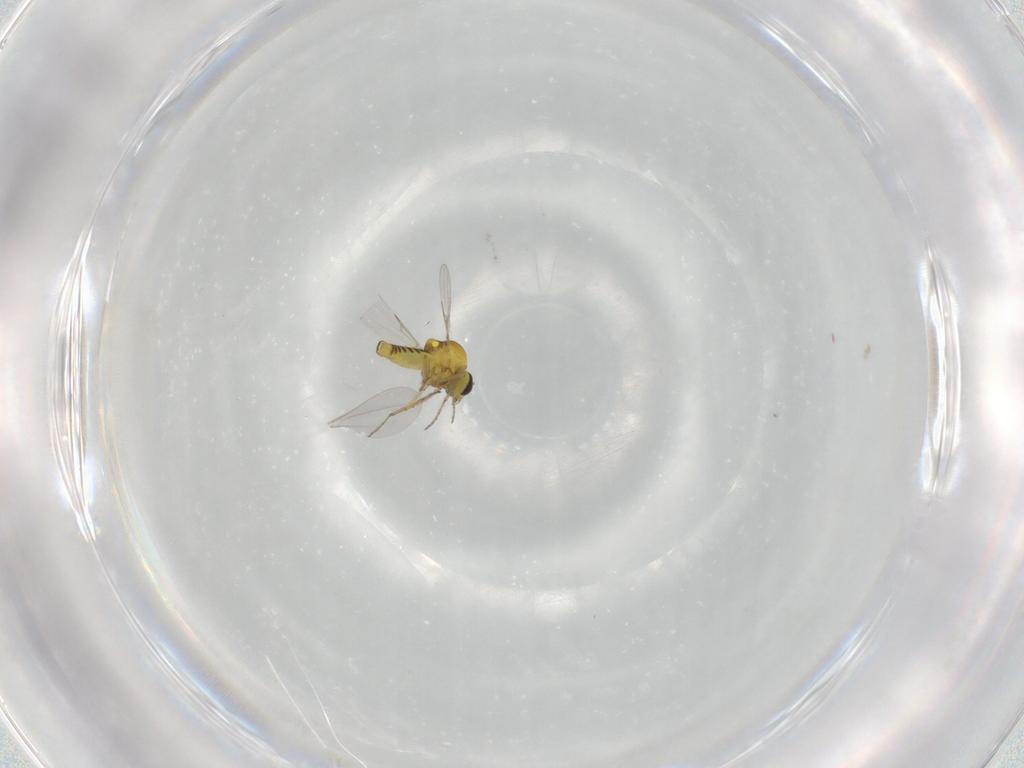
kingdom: Animalia
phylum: Arthropoda
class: Insecta
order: Diptera
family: Ceratopogonidae
